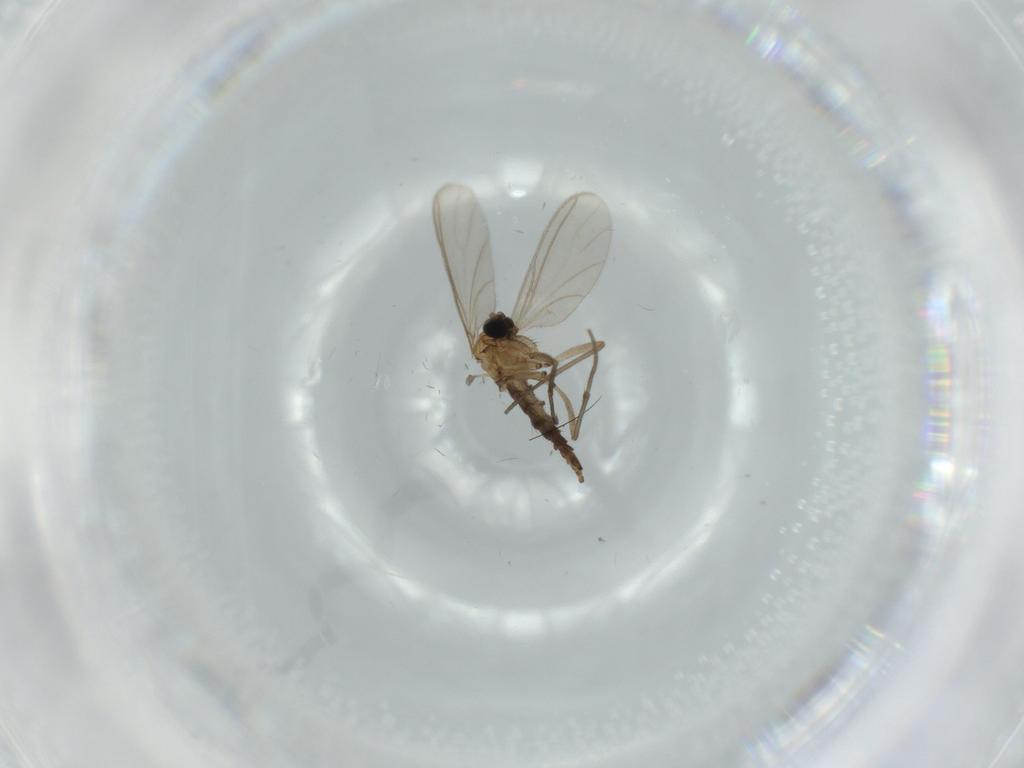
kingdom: Animalia
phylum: Arthropoda
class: Insecta
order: Diptera
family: Sciaridae
